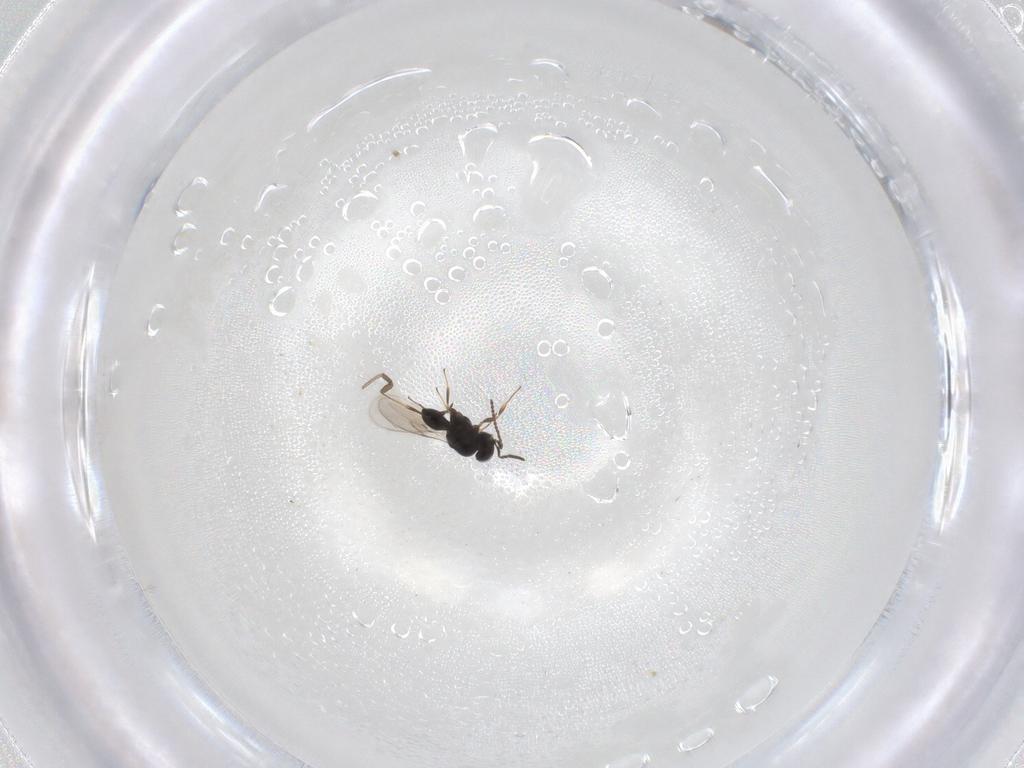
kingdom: Animalia
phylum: Arthropoda
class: Insecta
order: Hymenoptera
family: Scelionidae
